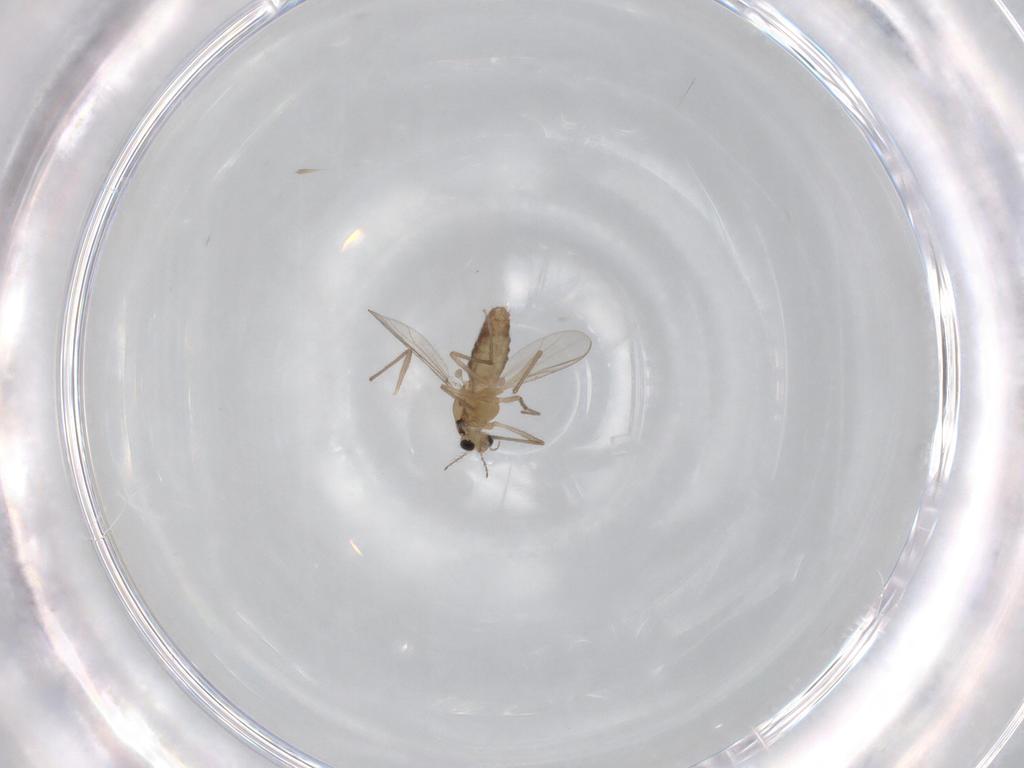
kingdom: Animalia
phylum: Arthropoda
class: Insecta
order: Diptera
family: Chironomidae
